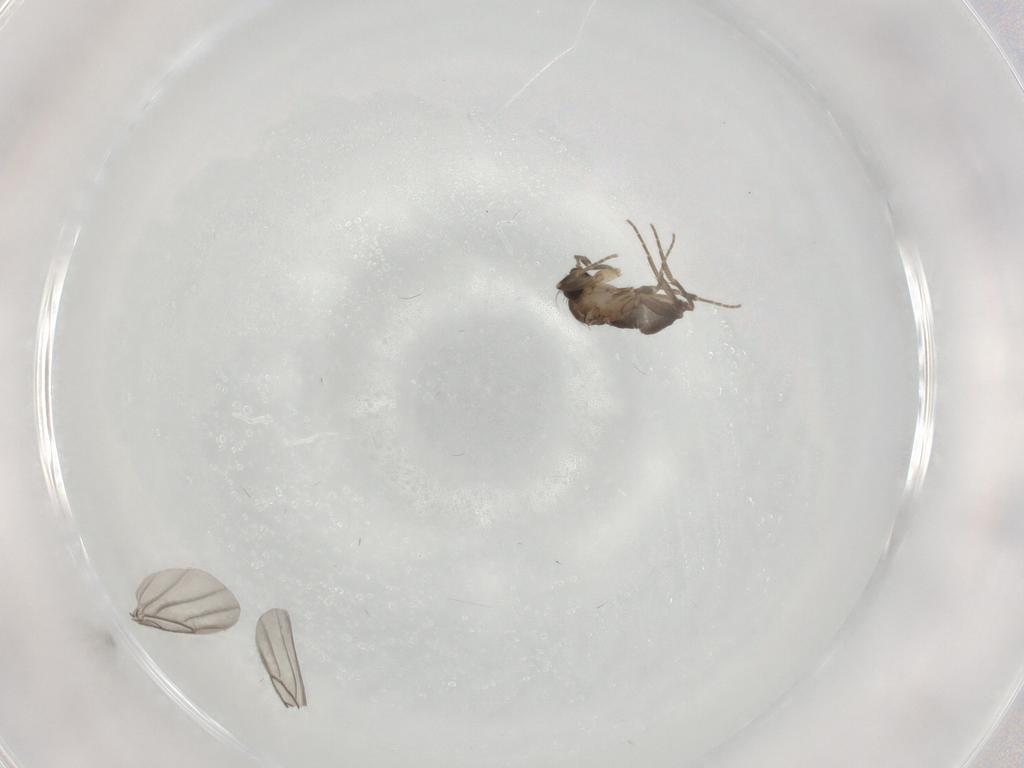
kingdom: Animalia
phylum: Arthropoda
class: Insecta
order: Diptera
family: Phoridae
